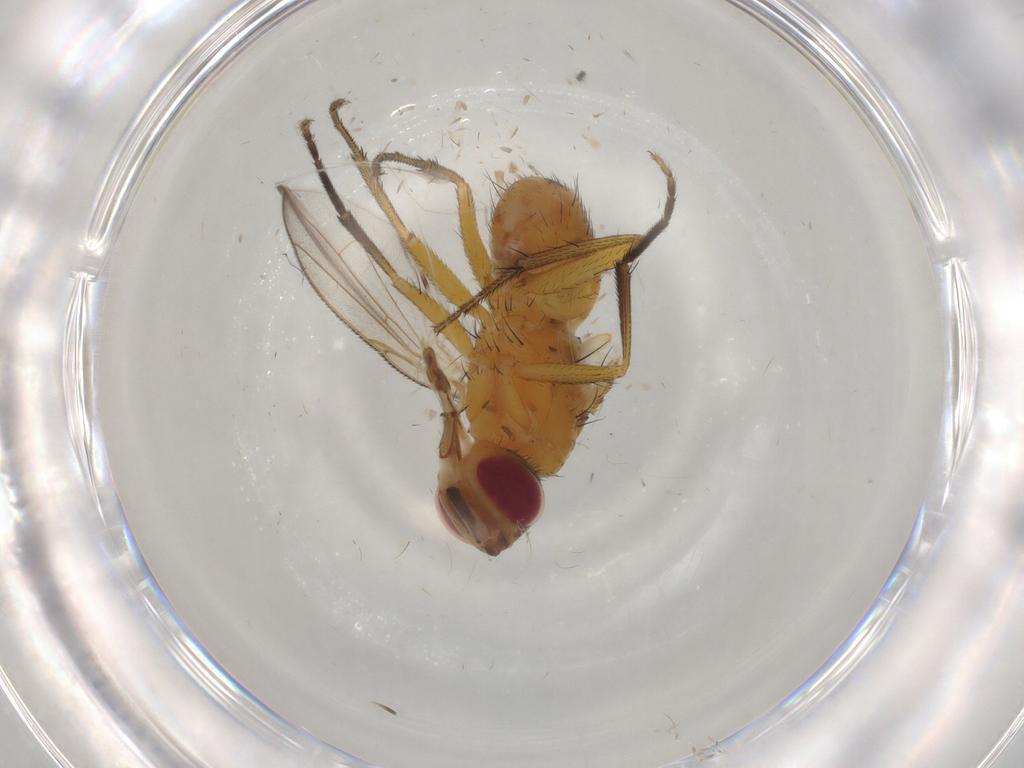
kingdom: Animalia
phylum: Arthropoda
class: Insecta
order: Diptera
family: Muscidae
